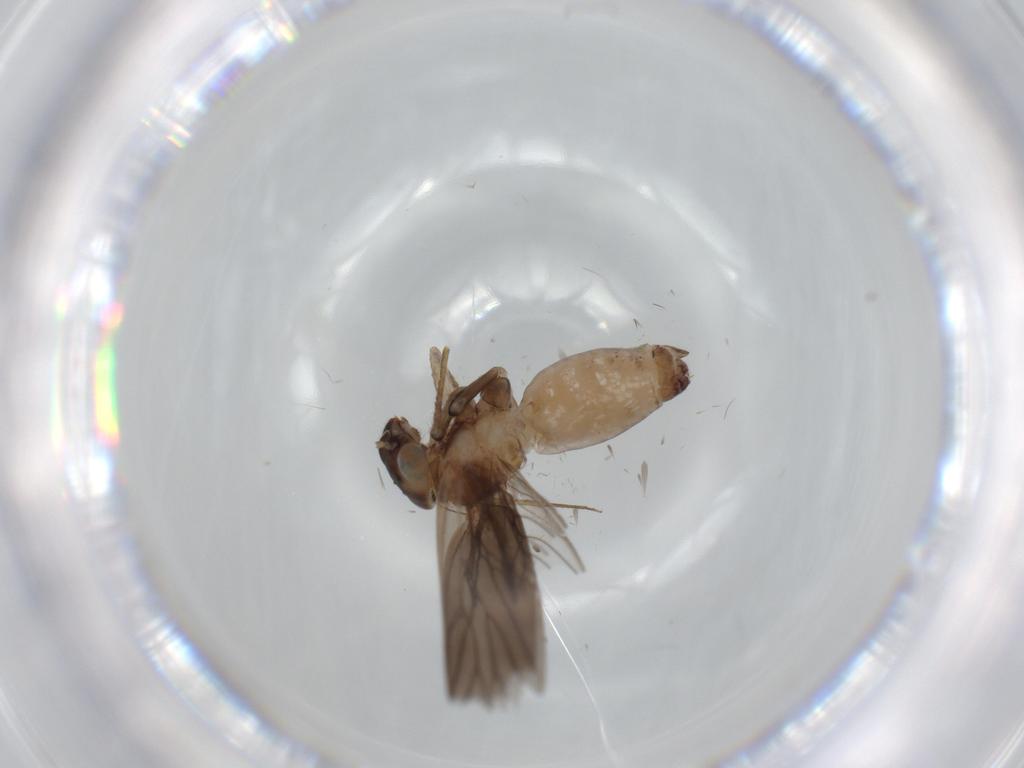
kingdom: Animalia
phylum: Arthropoda
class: Insecta
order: Psocodea
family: Lepidopsocidae
